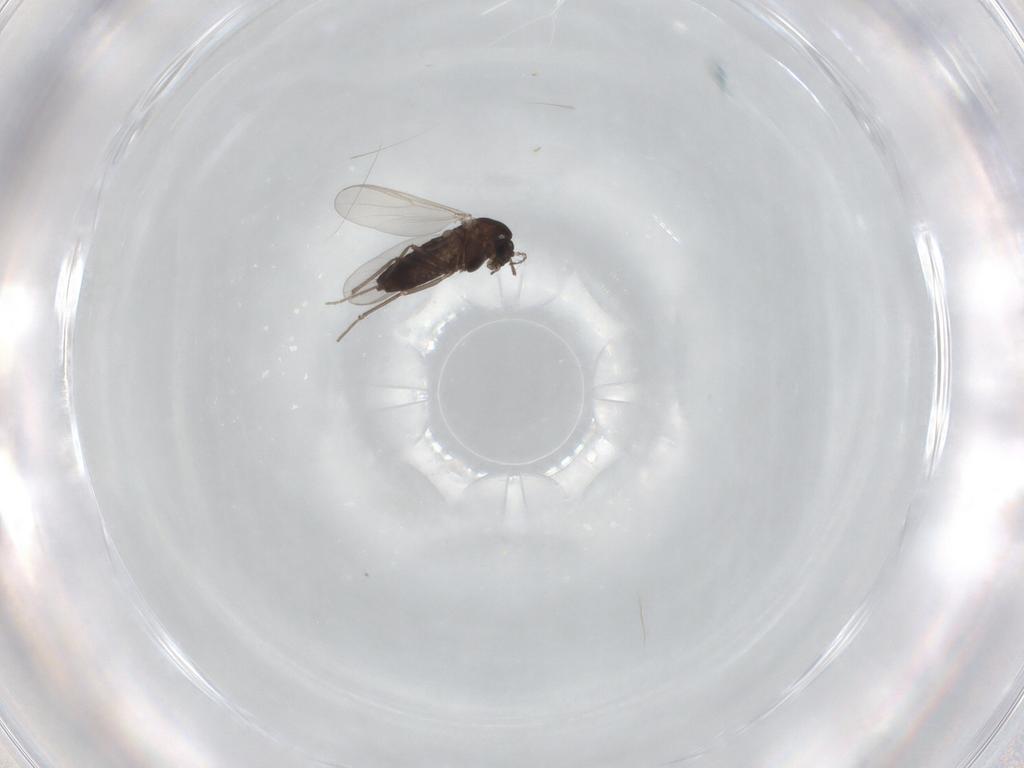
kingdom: Animalia
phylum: Arthropoda
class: Insecta
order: Diptera
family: Chironomidae
